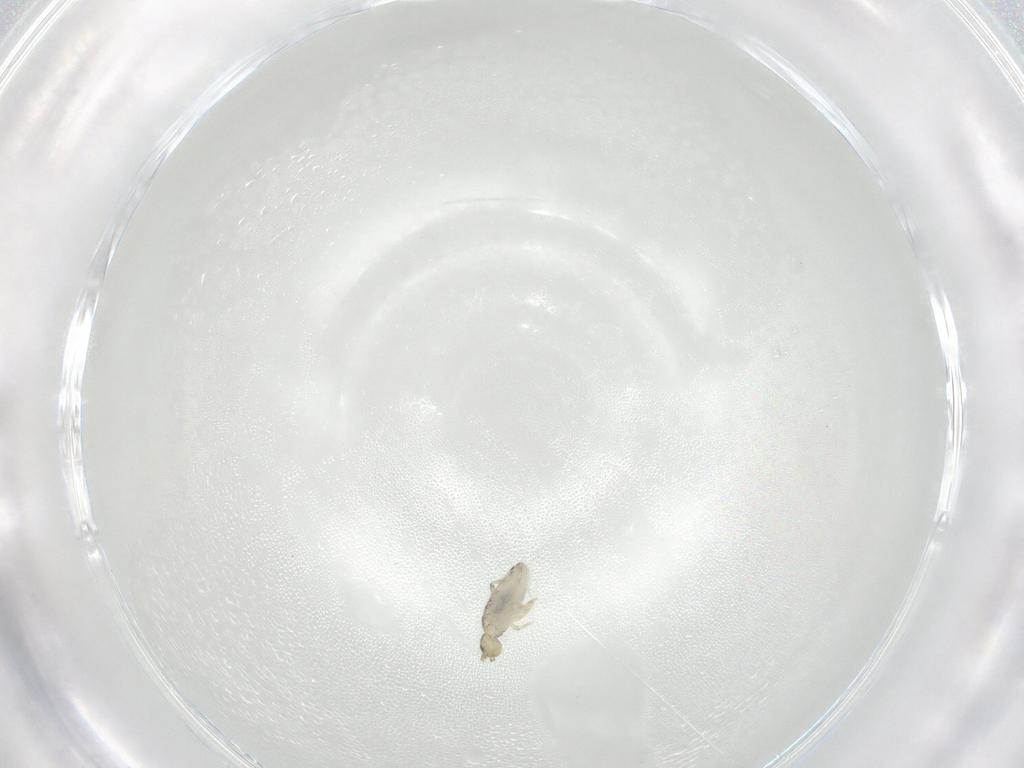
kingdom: Animalia
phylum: Arthropoda
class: Collembola
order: Entomobryomorpha
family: Entomobryidae
